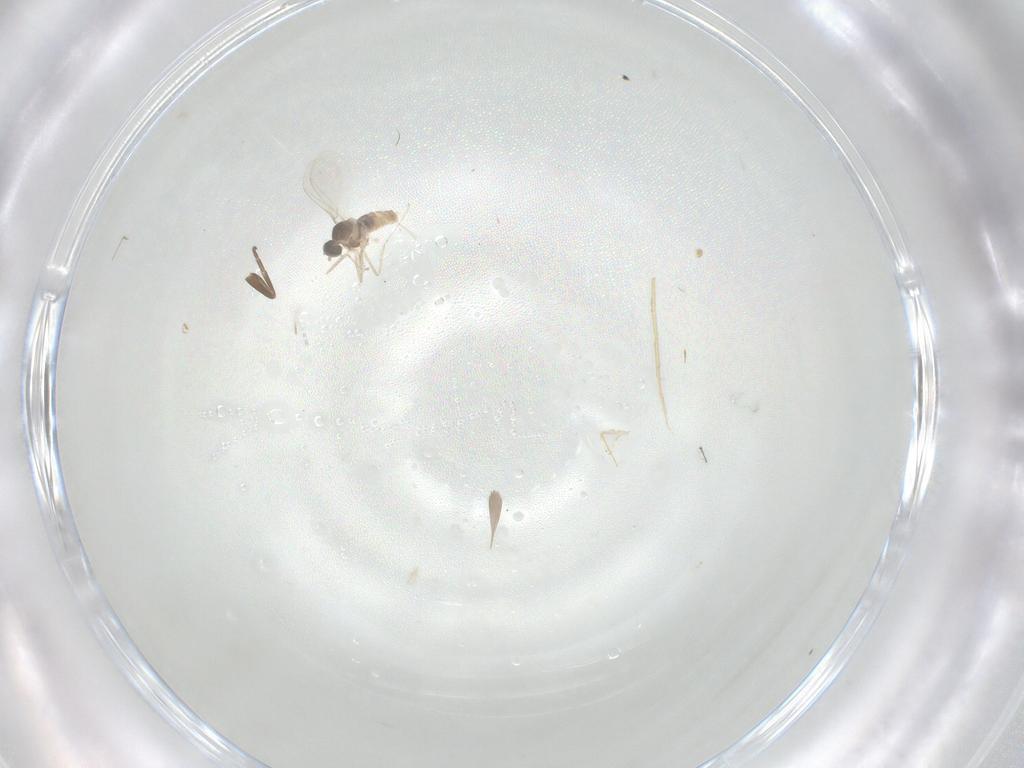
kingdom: Animalia
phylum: Arthropoda
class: Insecta
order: Diptera
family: Cecidomyiidae
